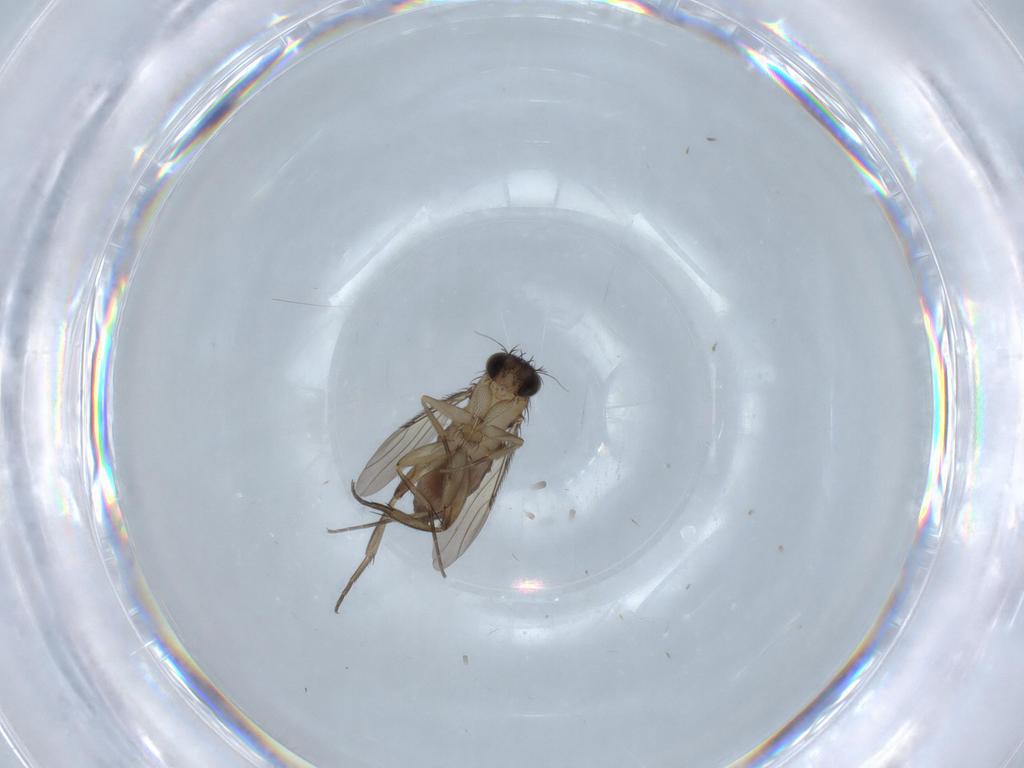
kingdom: Animalia
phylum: Arthropoda
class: Insecta
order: Diptera
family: Phoridae
